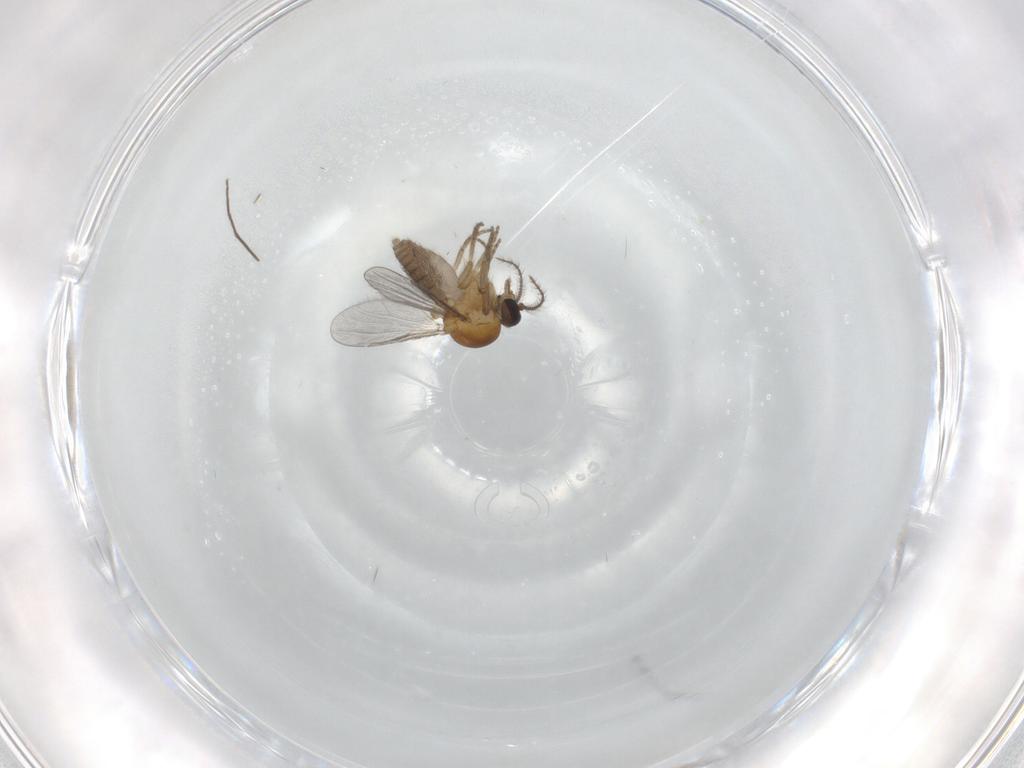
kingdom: Animalia
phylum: Arthropoda
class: Insecta
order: Diptera
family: Ceratopogonidae
